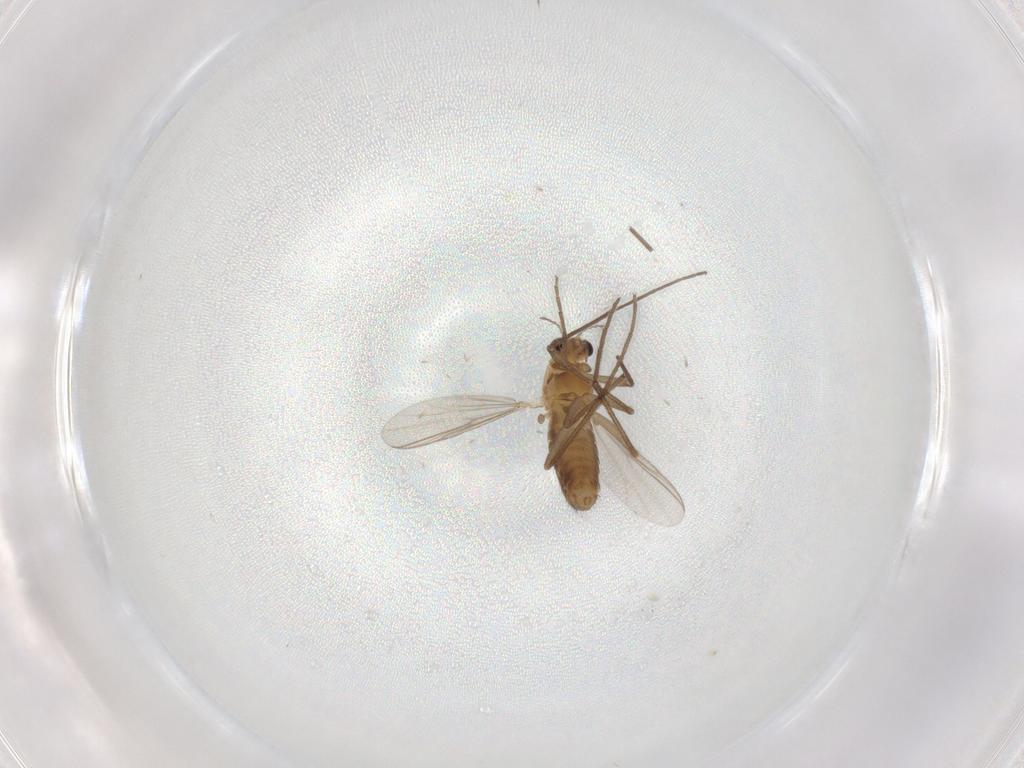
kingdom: Animalia
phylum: Arthropoda
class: Insecta
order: Diptera
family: Chironomidae
